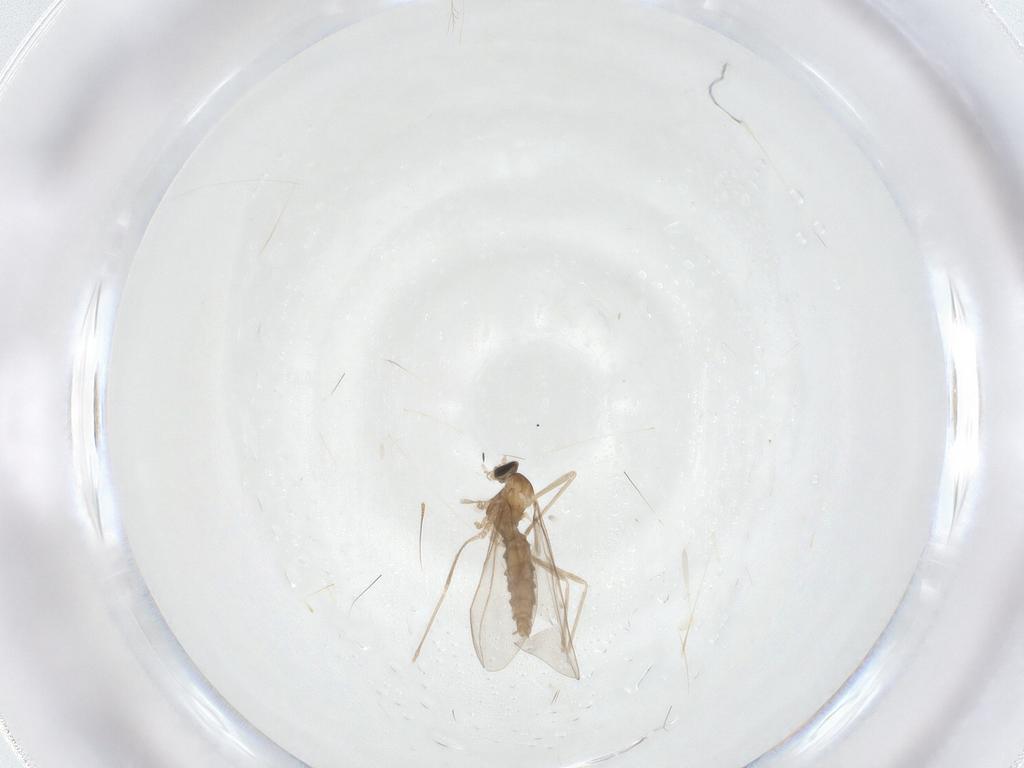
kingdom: Animalia
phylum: Arthropoda
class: Insecta
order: Diptera
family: Cecidomyiidae
